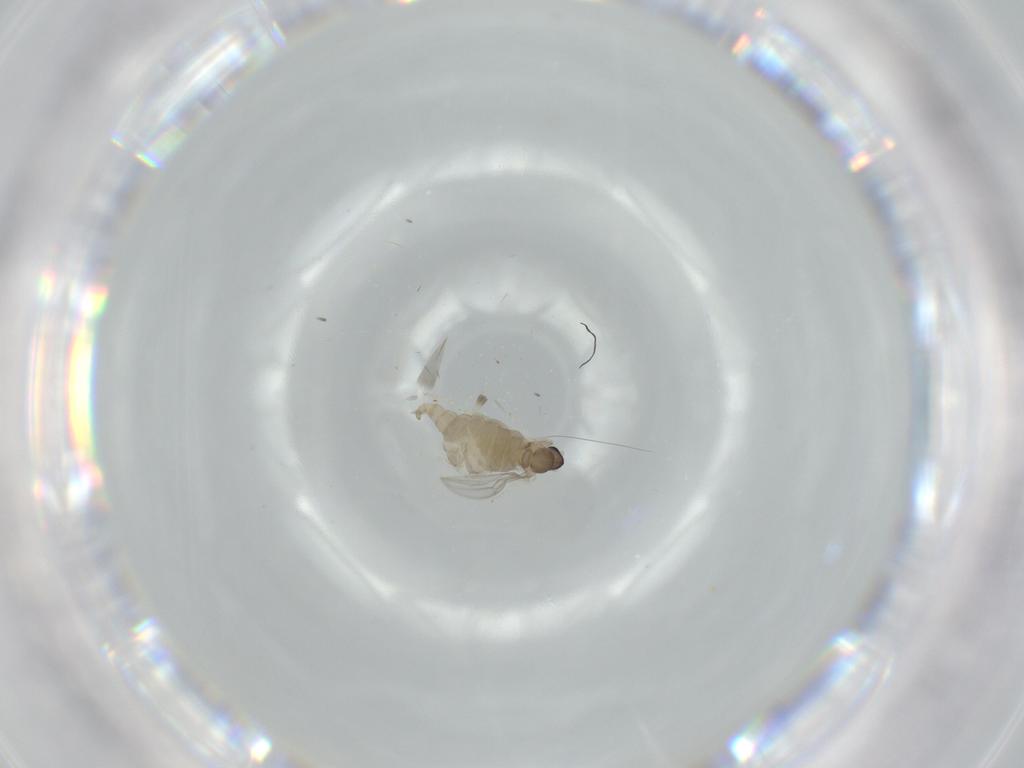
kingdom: Animalia
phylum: Arthropoda
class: Insecta
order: Diptera
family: Cecidomyiidae
